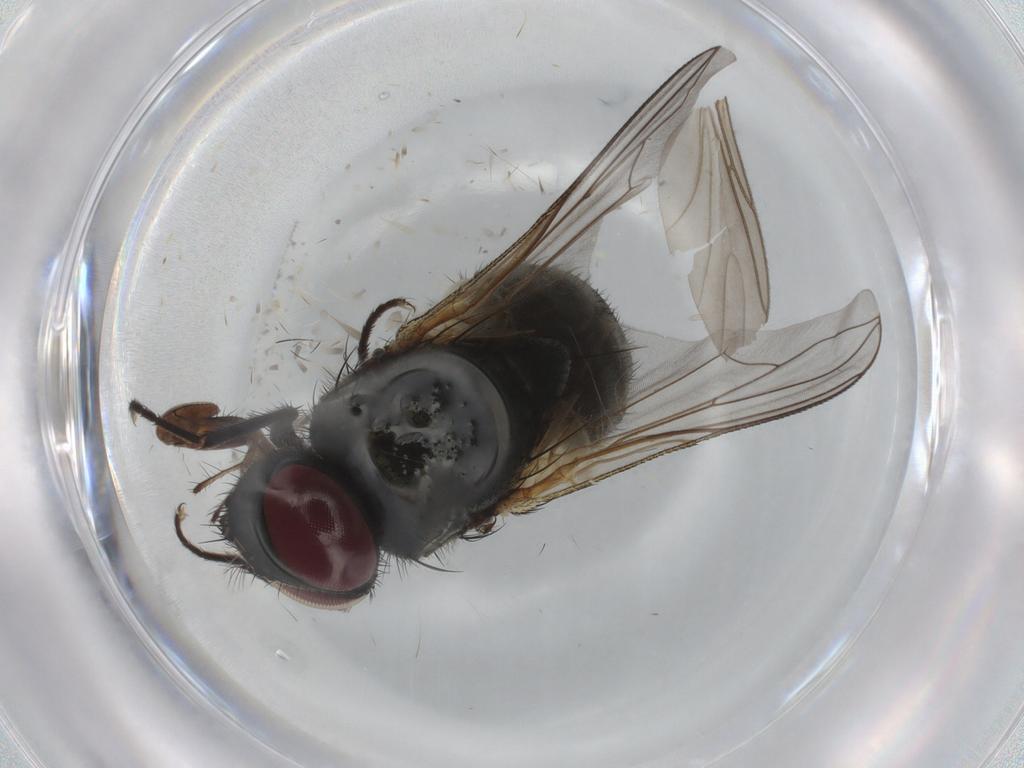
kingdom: Animalia
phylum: Arthropoda
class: Insecta
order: Diptera
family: Muscidae
